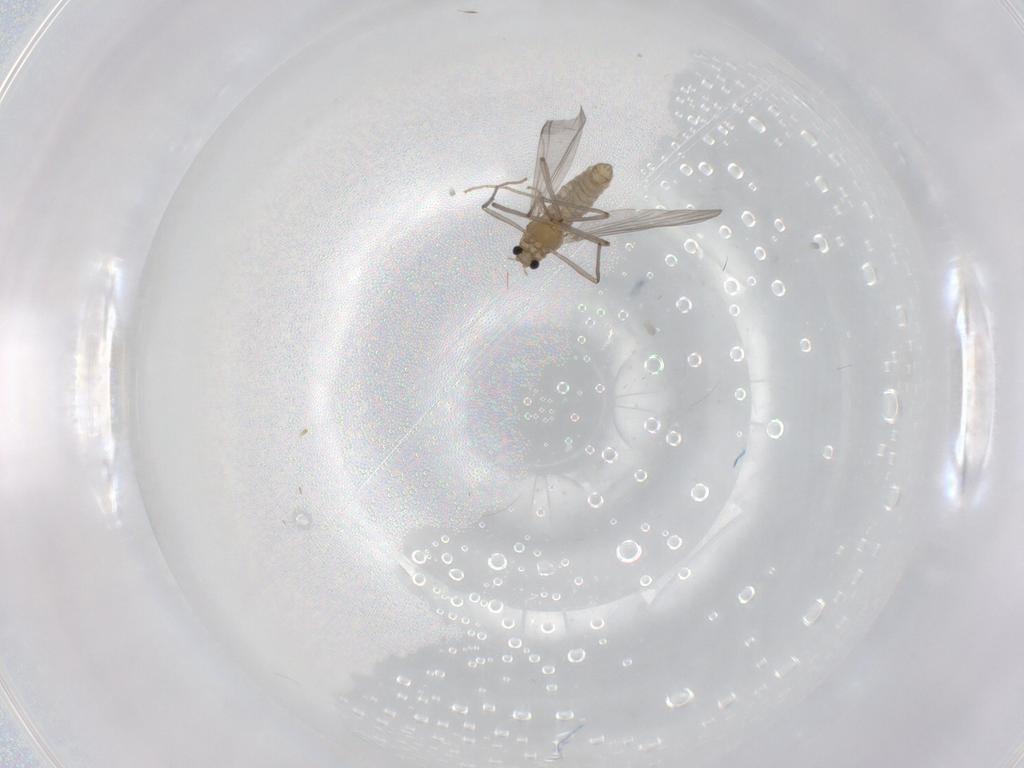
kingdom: Animalia
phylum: Arthropoda
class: Insecta
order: Diptera
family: Chironomidae
